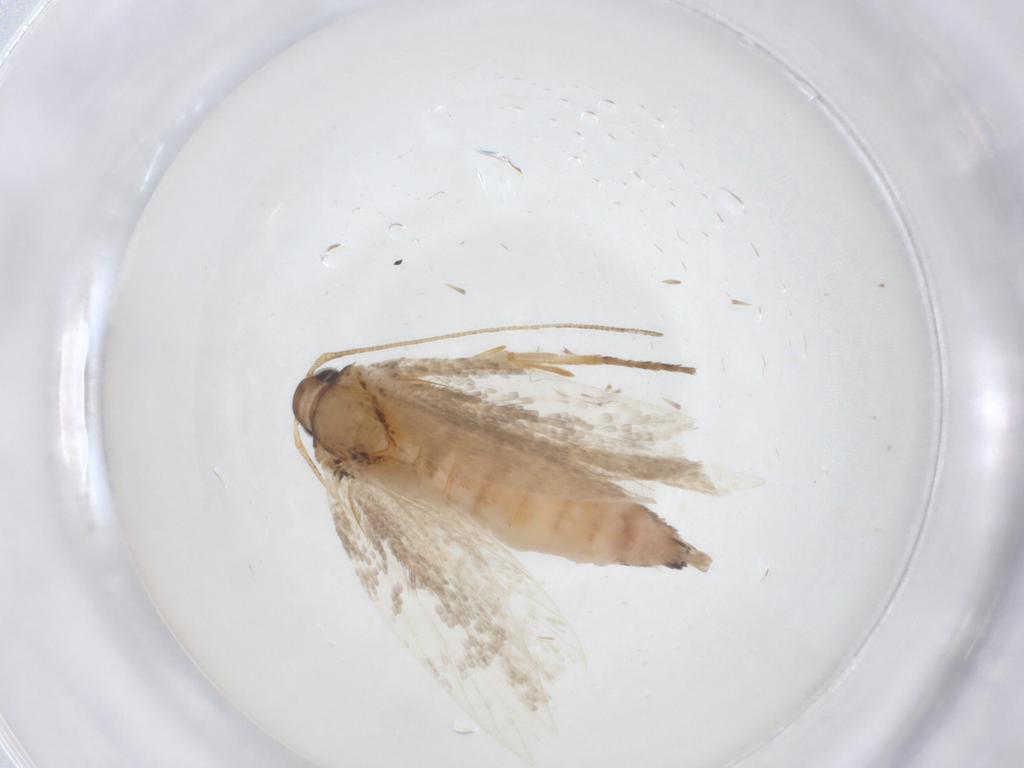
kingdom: Animalia
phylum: Arthropoda
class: Insecta
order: Lepidoptera
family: Gelechiidae
